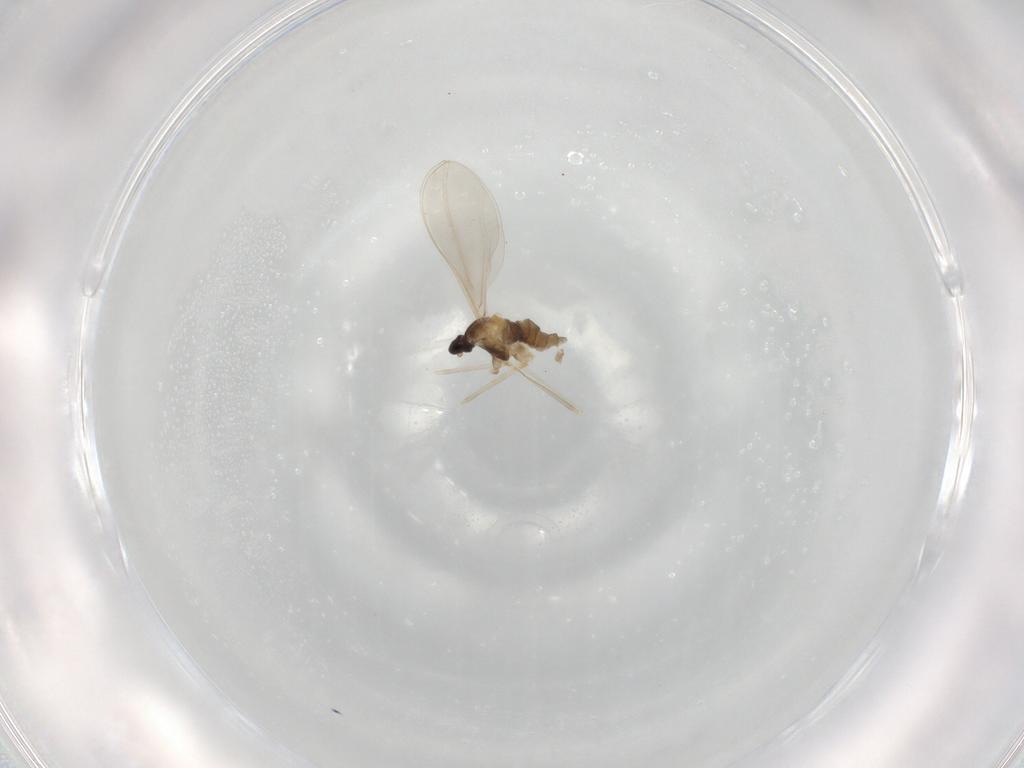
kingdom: Animalia
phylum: Arthropoda
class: Insecta
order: Diptera
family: Cecidomyiidae
